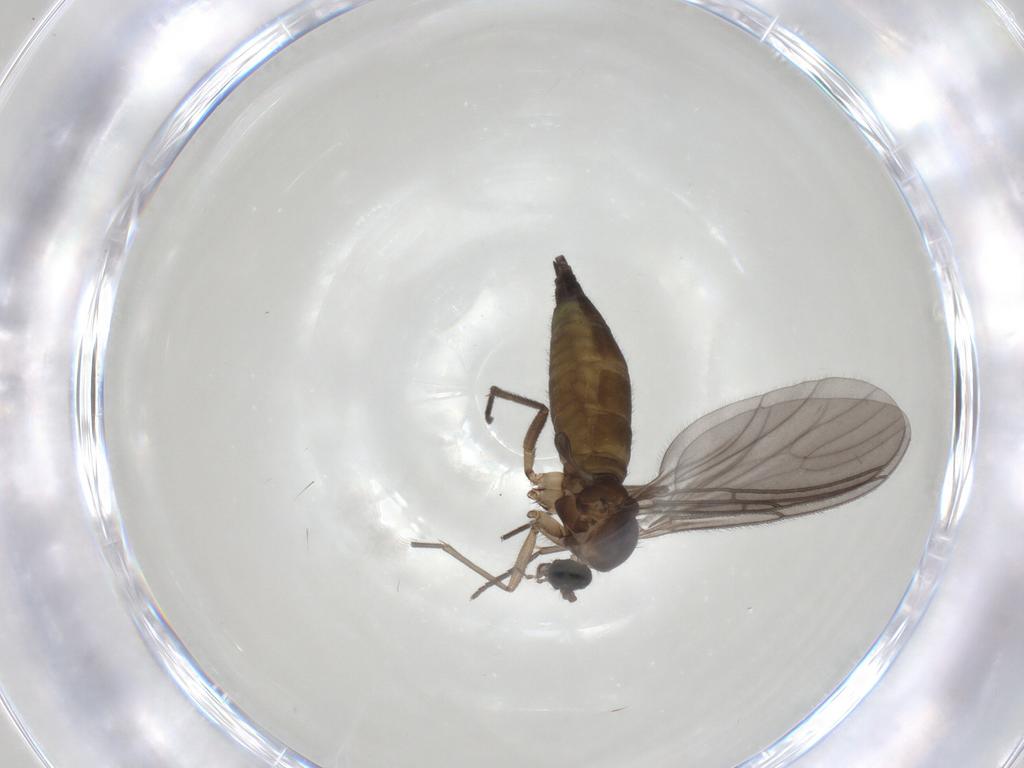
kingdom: Animalia
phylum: Arthropoda
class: Insecta
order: Diptera
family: Sciaridae
